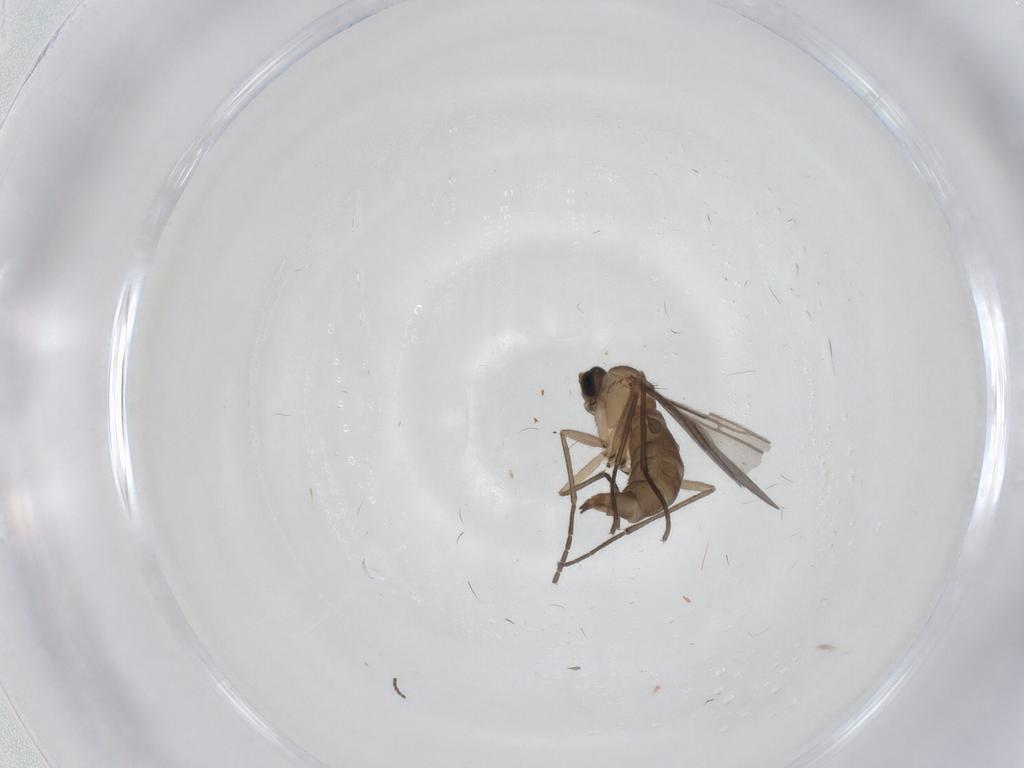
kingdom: Animalia
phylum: Arthropoda
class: Insecta
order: Diptera
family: Sciaridae
